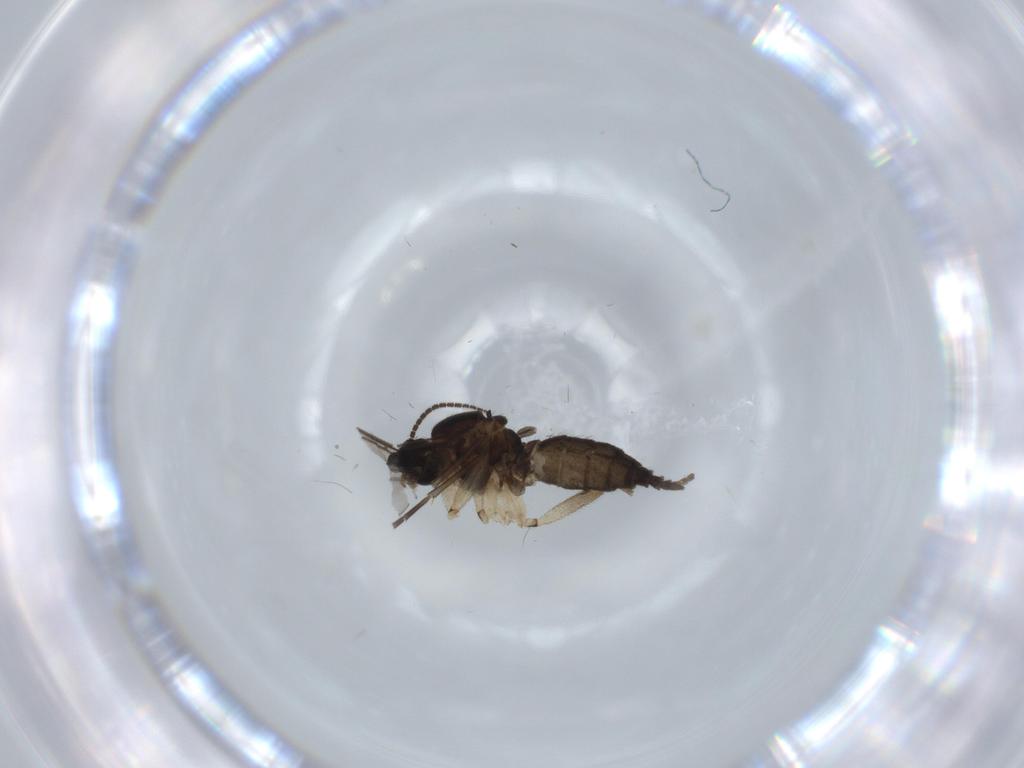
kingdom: Animalia
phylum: Arthropoda
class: Insecta
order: Diptera
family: Sciaridae
